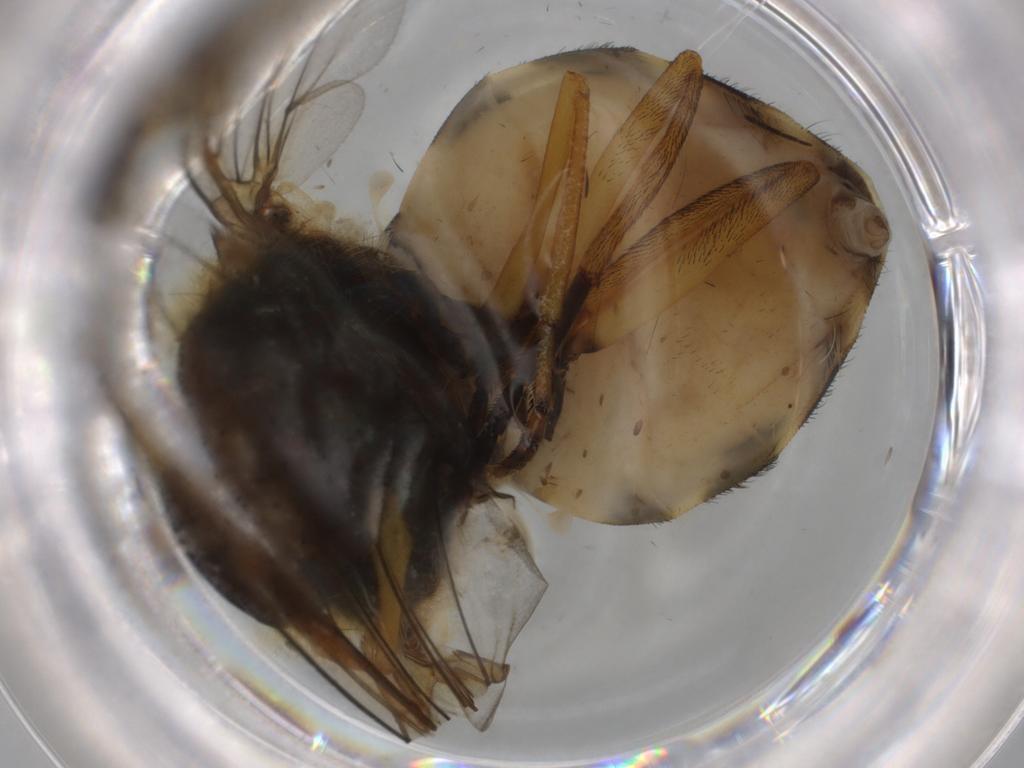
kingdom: Animalia
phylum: Arthropoda
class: Insecta
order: Diptera
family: Syrphidae
